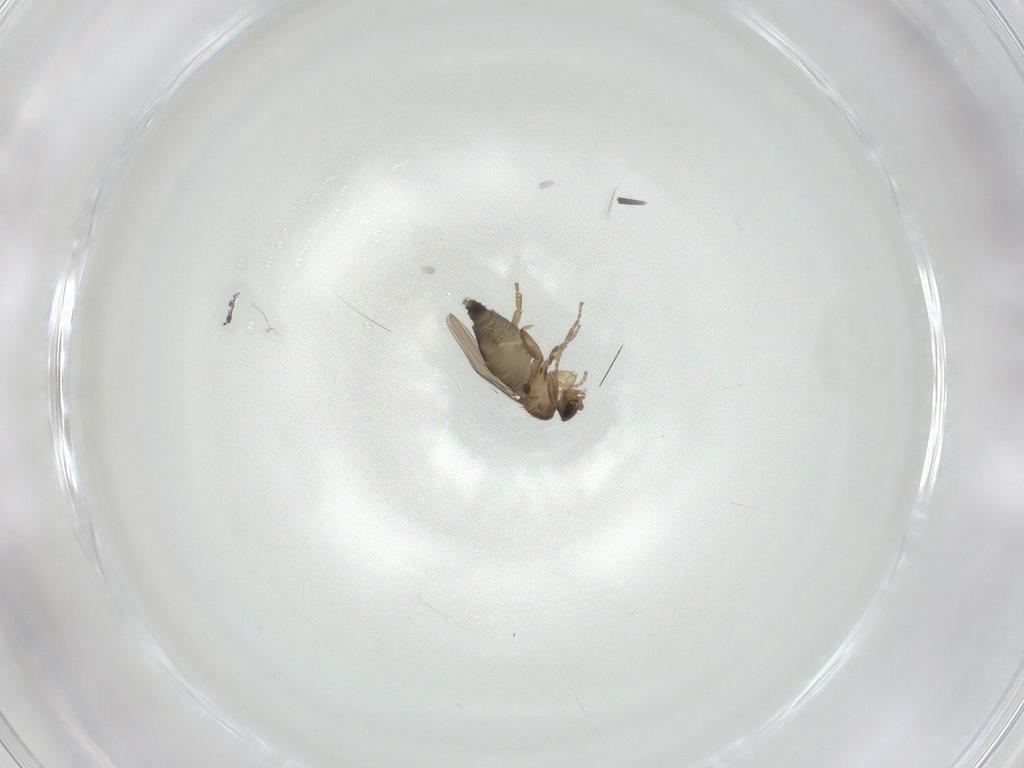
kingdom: Animalia
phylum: Arthropoda
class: Insecta
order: Diptera
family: Phoridae
